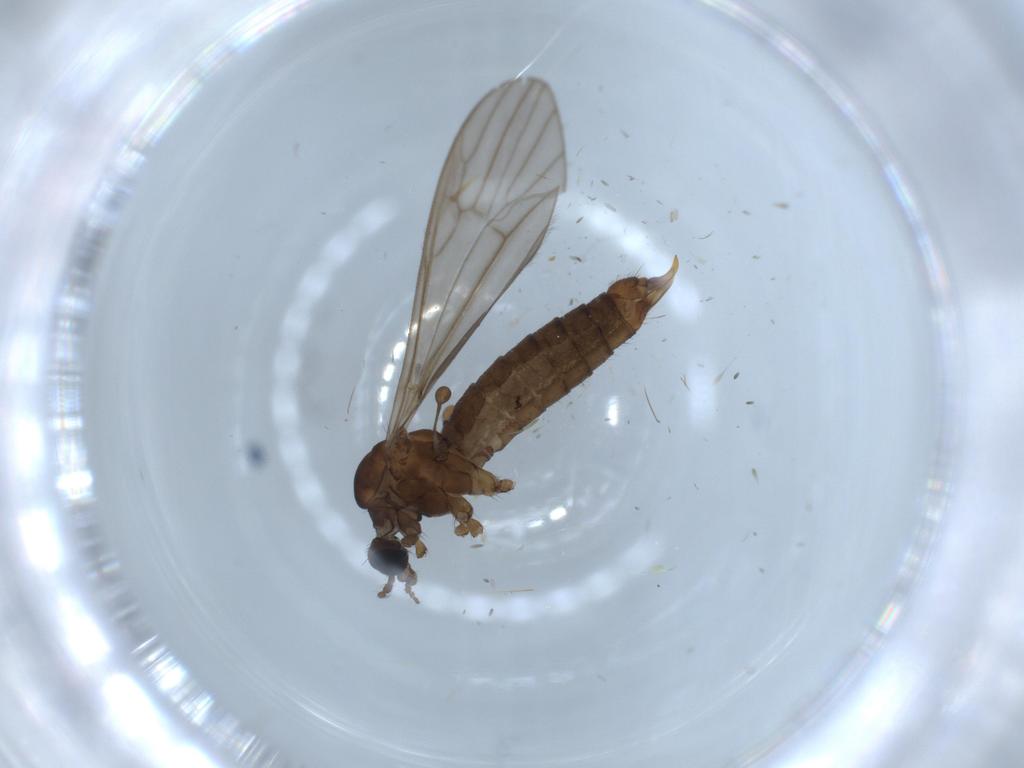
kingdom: Animalia
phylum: Arthropoda
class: Insecta
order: Diptera
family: Limoniidae
